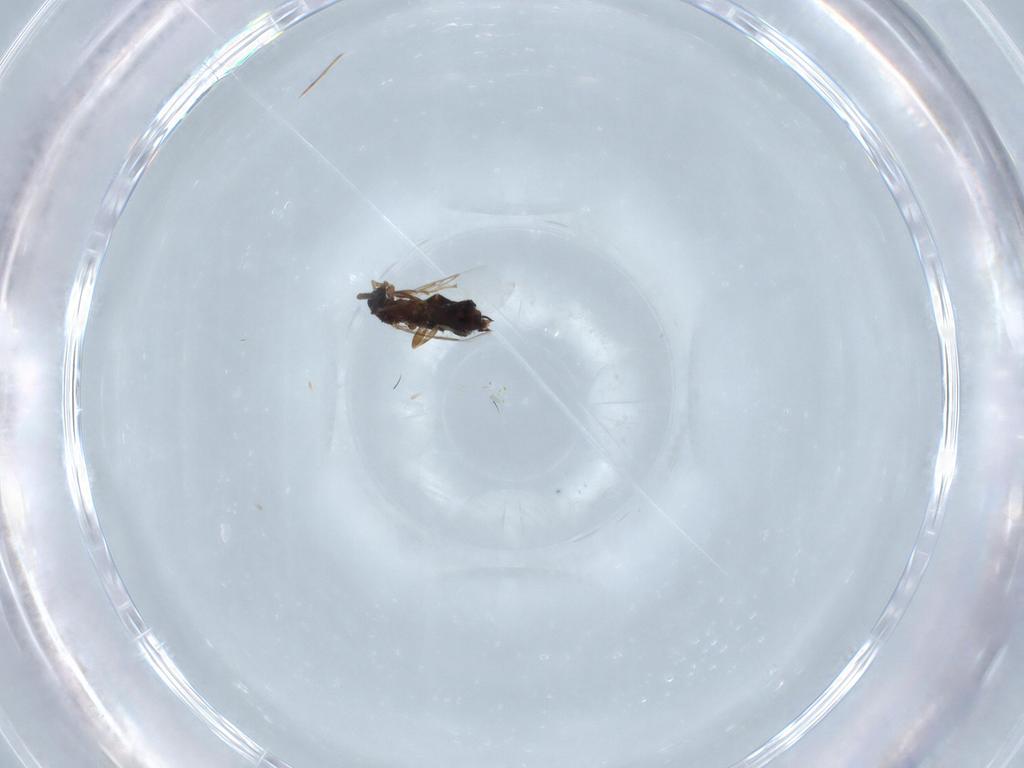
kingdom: Animalia
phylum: Arthropoda
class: Insecta
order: Diptera
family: Scatopsidae
